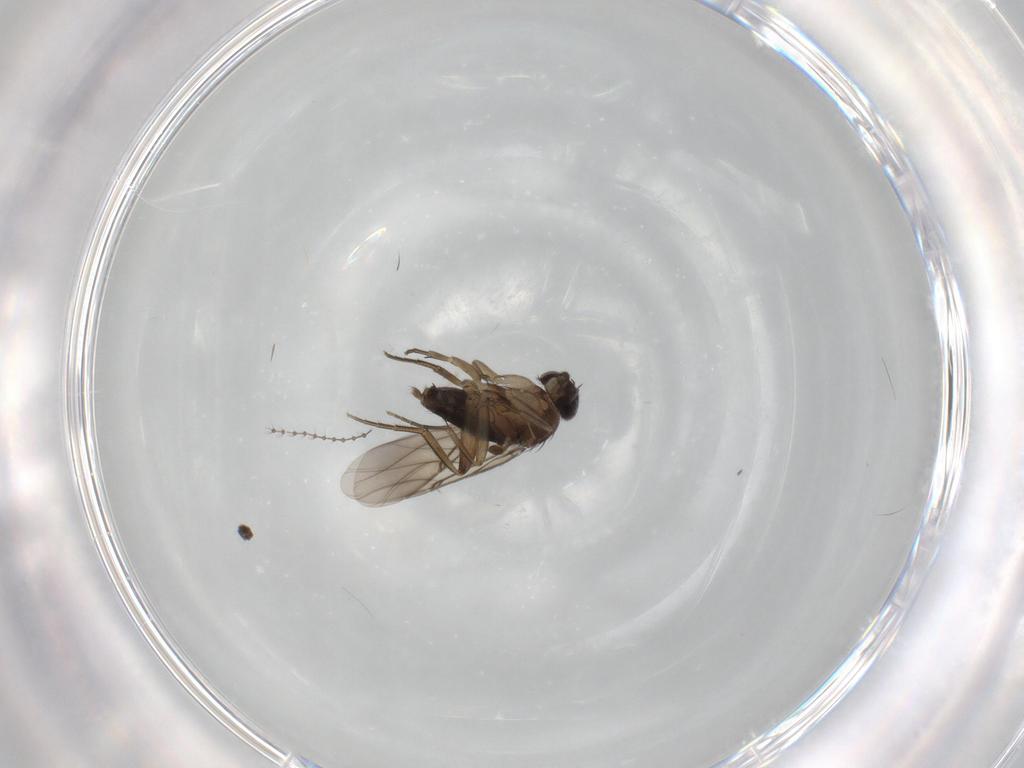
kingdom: Animalia
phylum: Arthropoda
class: Insecta
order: Diptera
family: Phoridae
